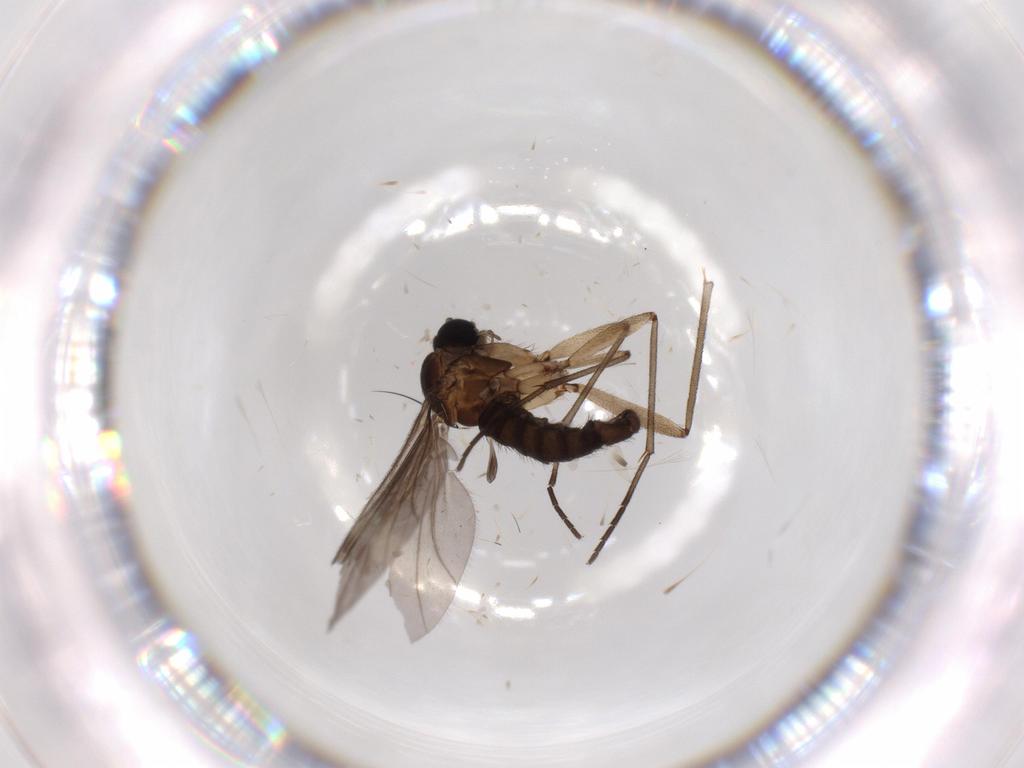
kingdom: Animalia
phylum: Arthropoda
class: Insecta
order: Diptera
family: Sciaridae
